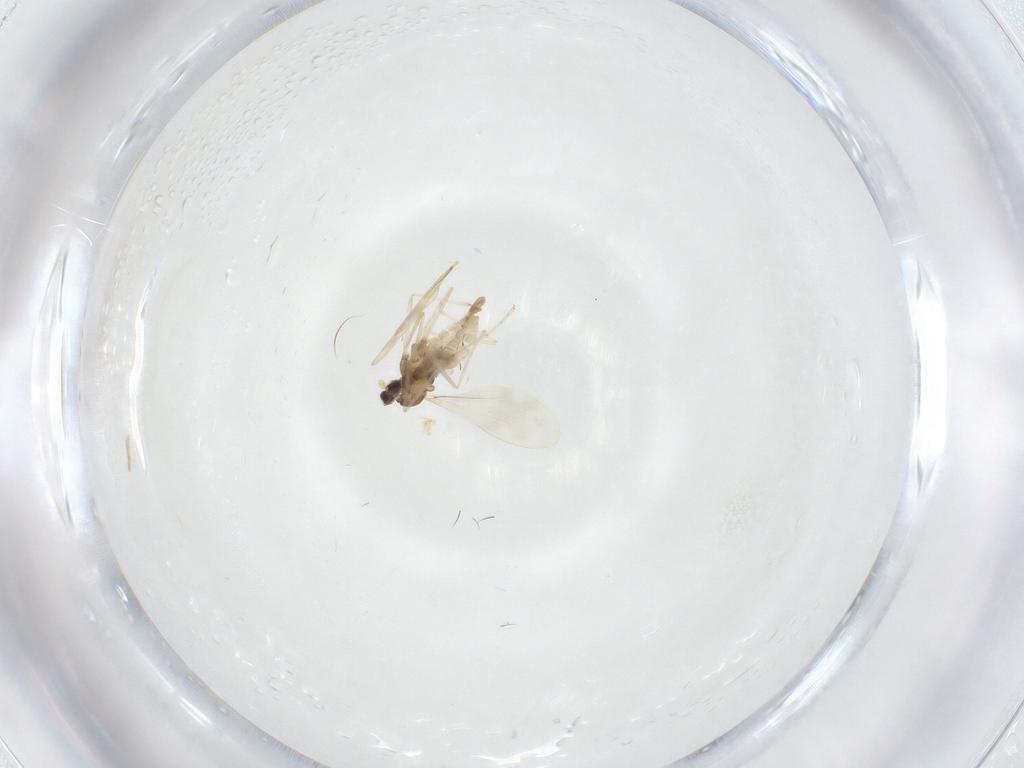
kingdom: Animalia
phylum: Arthropoda
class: Insecta
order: Diptera
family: Cecidomyiidae
